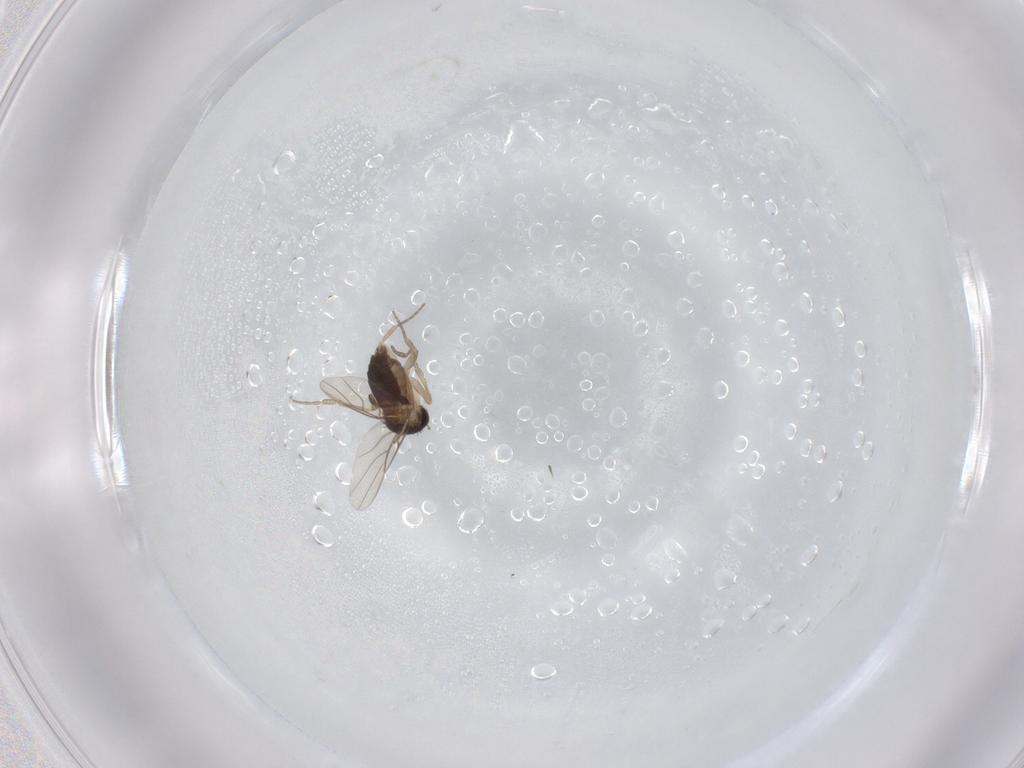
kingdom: Animalia
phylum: Arthropoda
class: Insecta
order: Diptera
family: Phoridae
